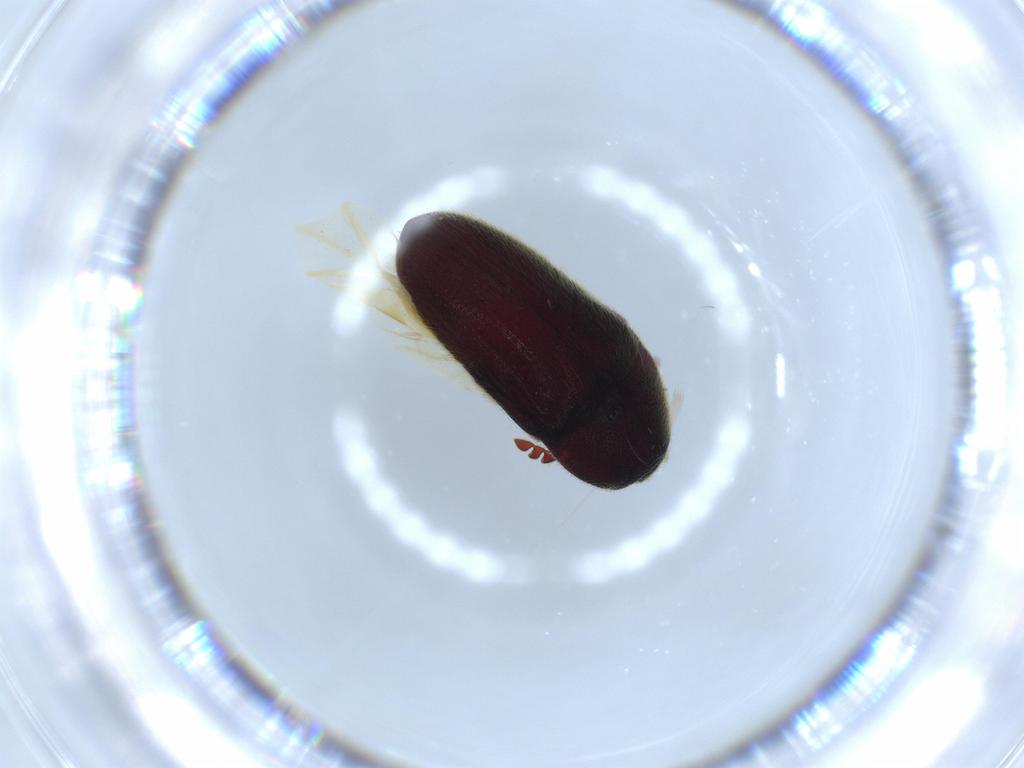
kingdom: Animalia
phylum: Arthropoda
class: Insecta
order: Coleoptera
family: Throscidae
